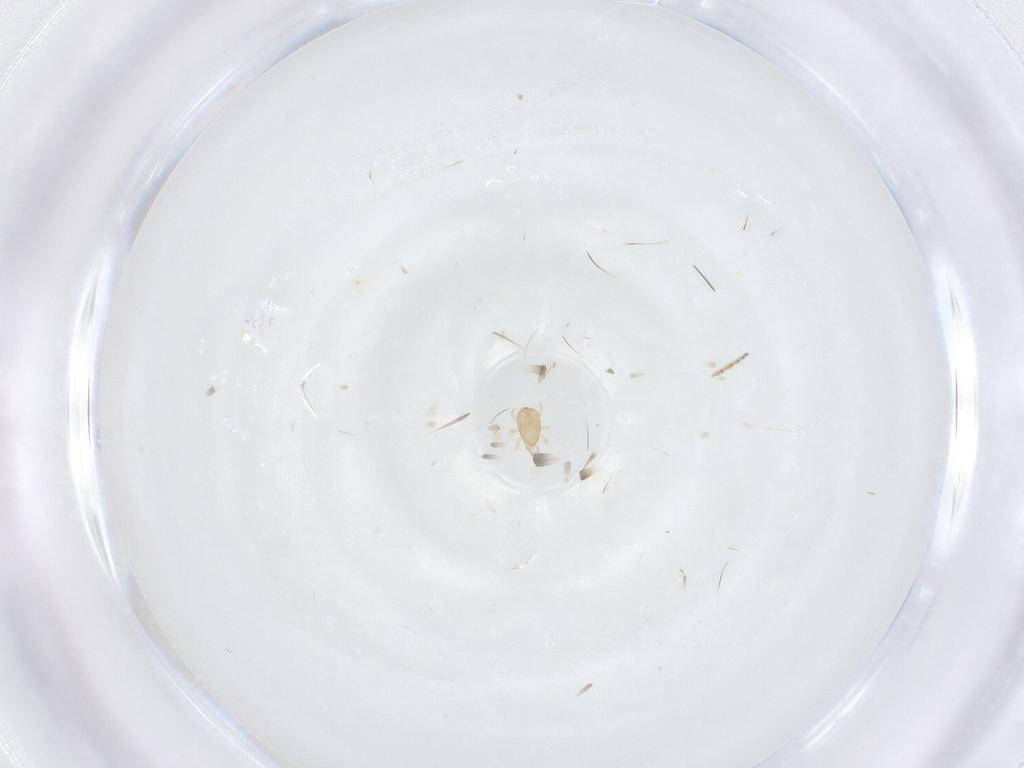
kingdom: Animalia
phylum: Arthropoda
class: Arachnida
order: Mesostigmata
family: Ascidae
